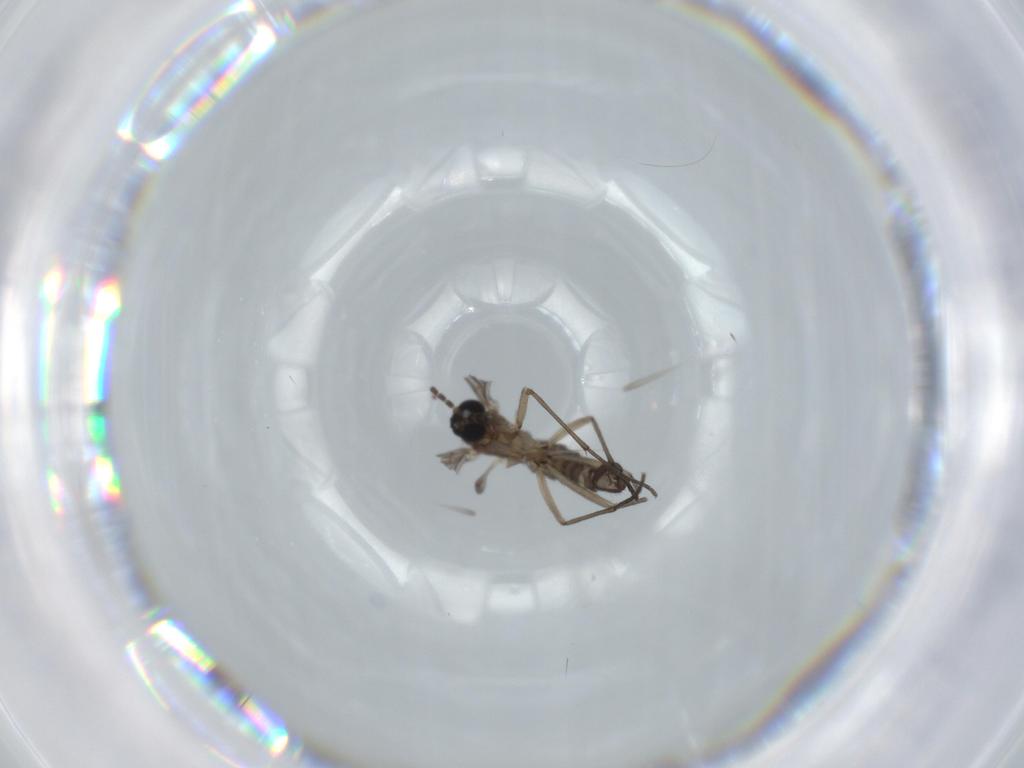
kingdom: Animalia
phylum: Arthropoda
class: Insecta
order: Diptera
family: Sciaridae
